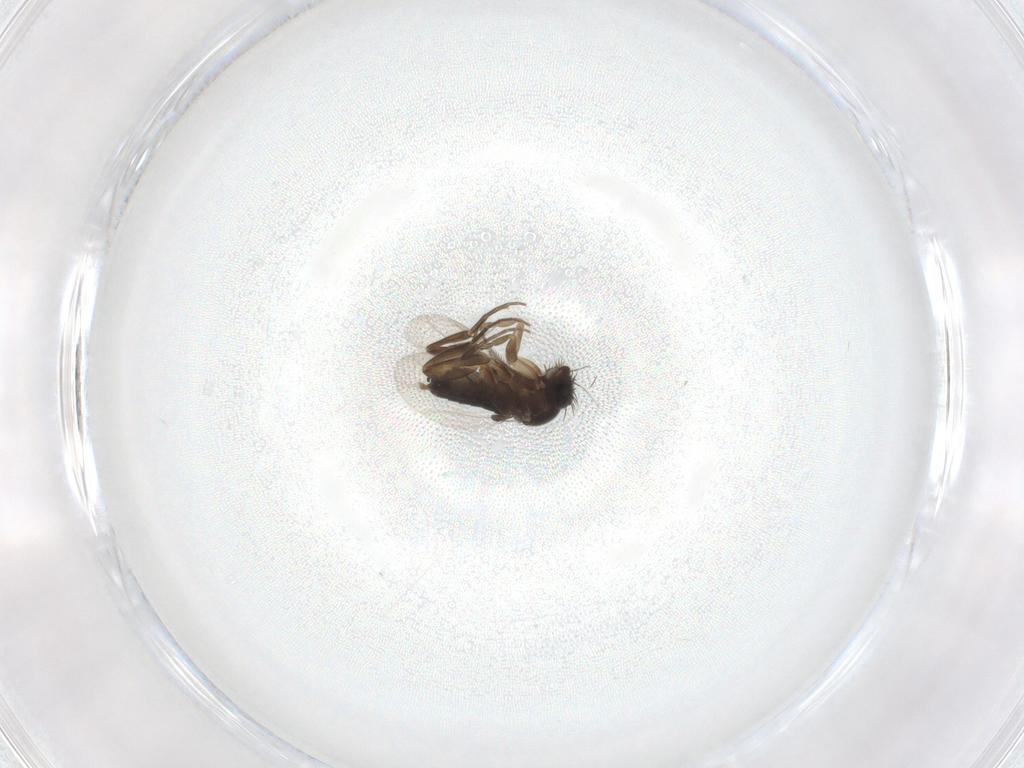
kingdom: Animalia
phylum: Arthropoda
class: Insecta
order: Diptera
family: Phoridae
